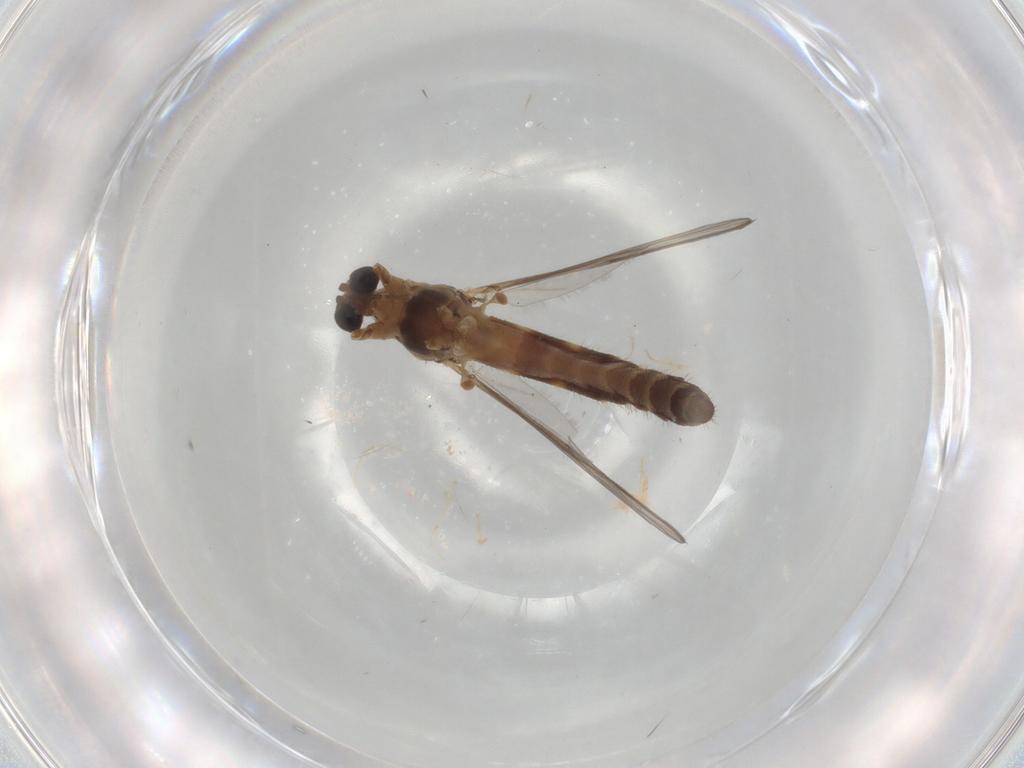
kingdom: Animalia
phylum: Arthropoda
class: Insecta
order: Diptera
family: Chironomidae
